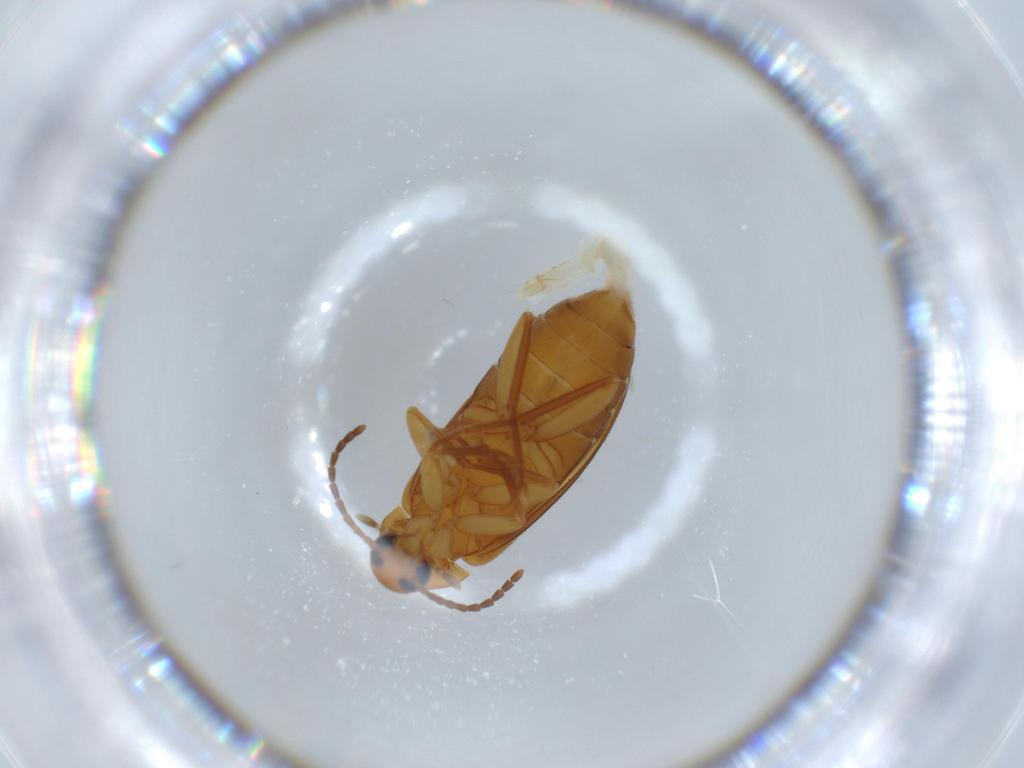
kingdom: Animalia
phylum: Arthropoda
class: Insecta
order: Coleoptera
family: Scraptiidae
